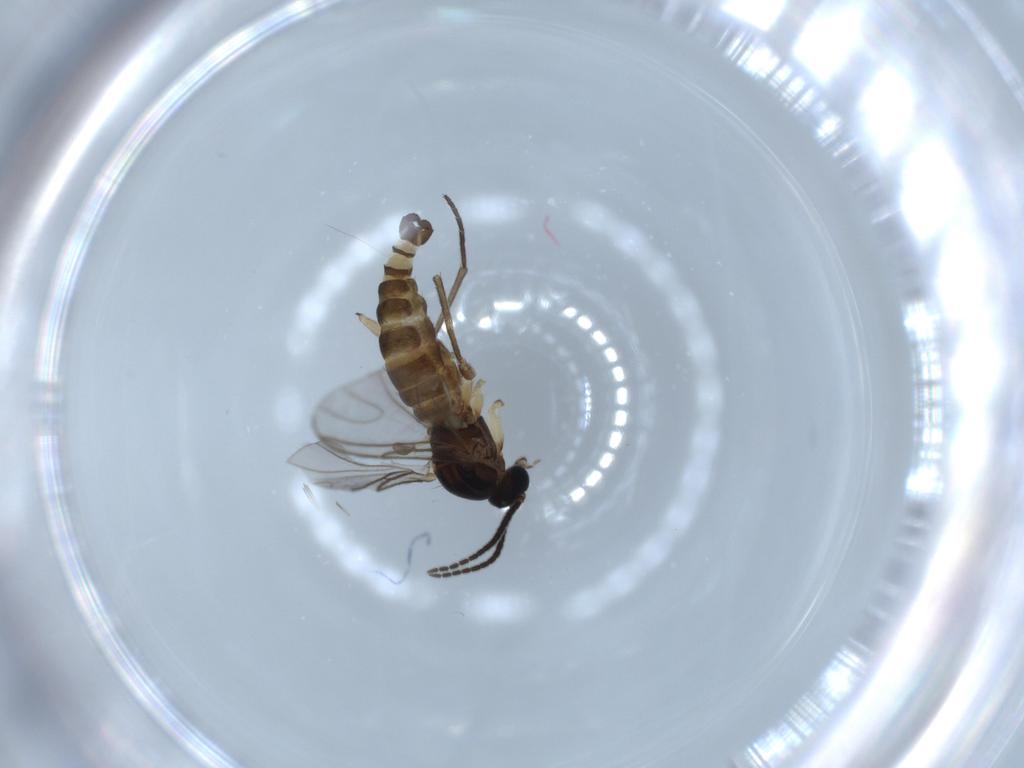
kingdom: Animalia
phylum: Arthropoda
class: Insecta
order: Diptera
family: Sciaridae
